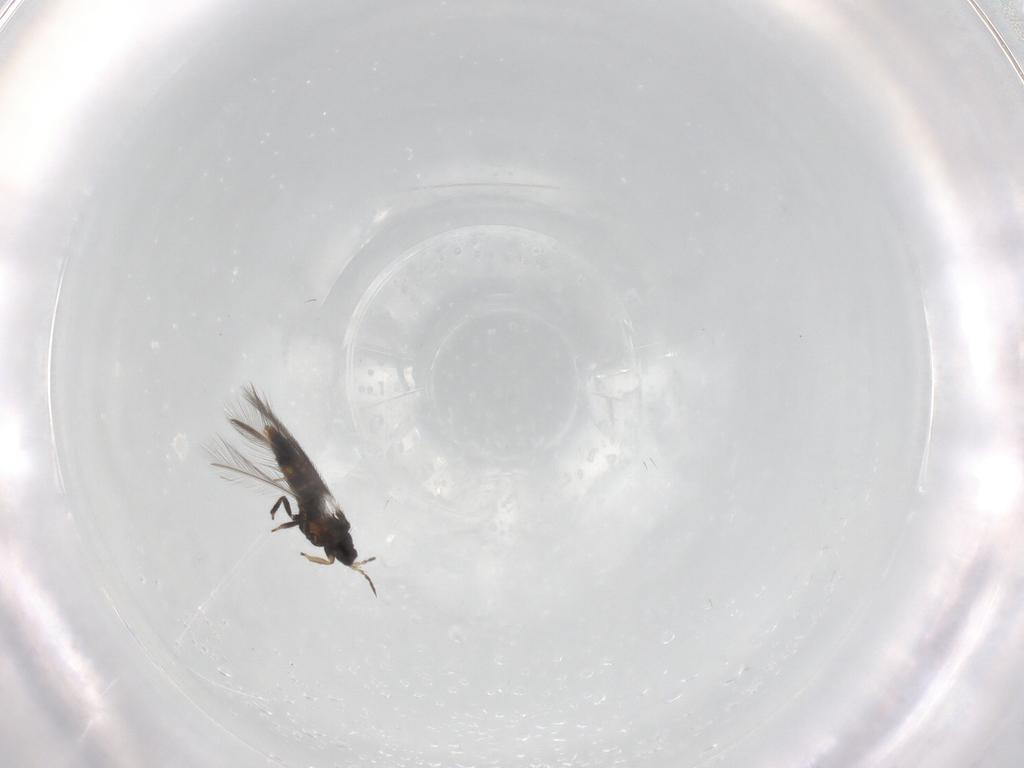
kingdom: Animalia
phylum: Arthropoda
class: Insecta
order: Thysanoptera
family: Thripidae
